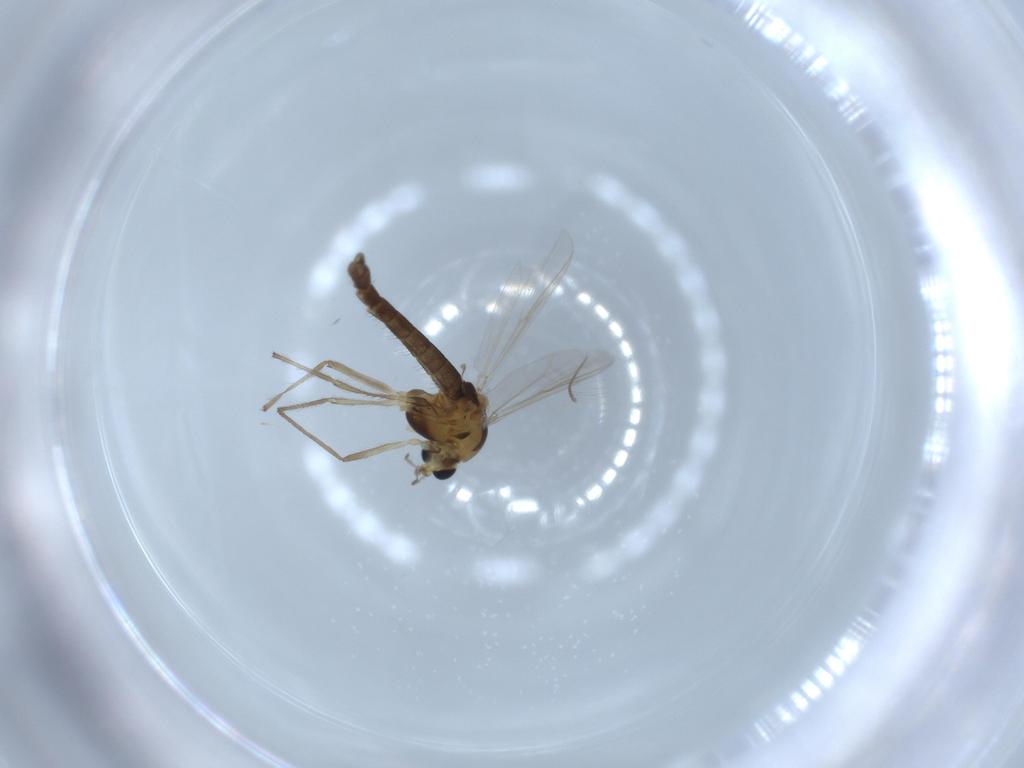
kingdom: Animalia
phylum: Arthropoda
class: Insecta
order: Diptera
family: Chironomidae
